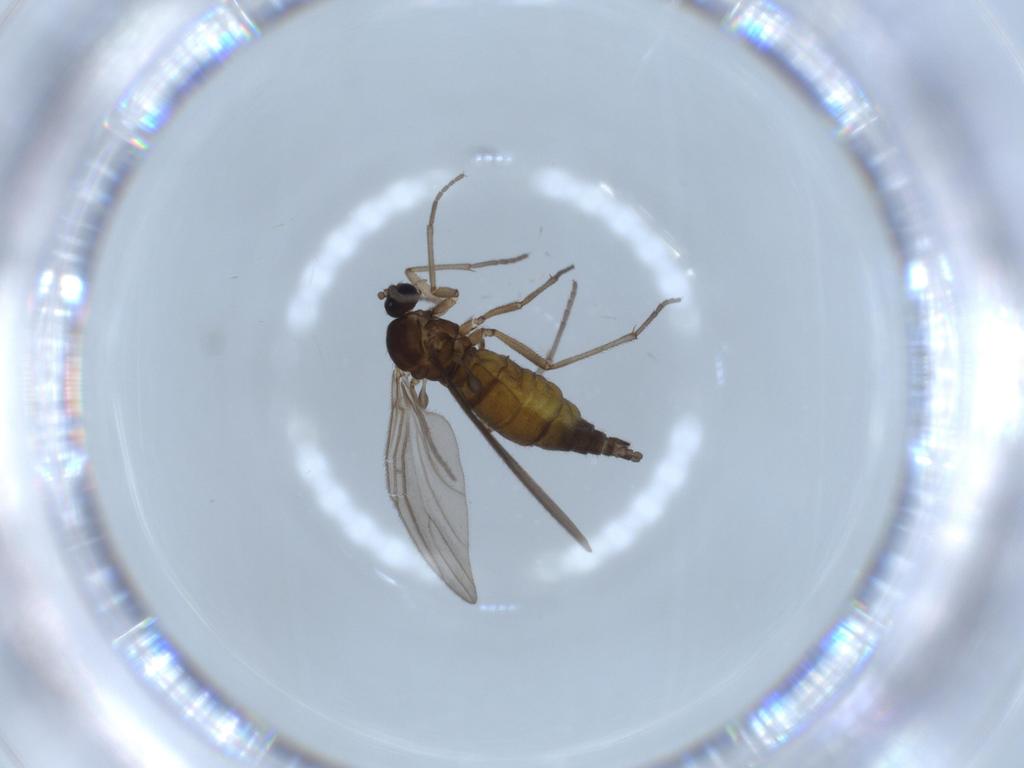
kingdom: Animalia
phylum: Arthropoda
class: Insecta
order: Diptera
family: Sciaridae
